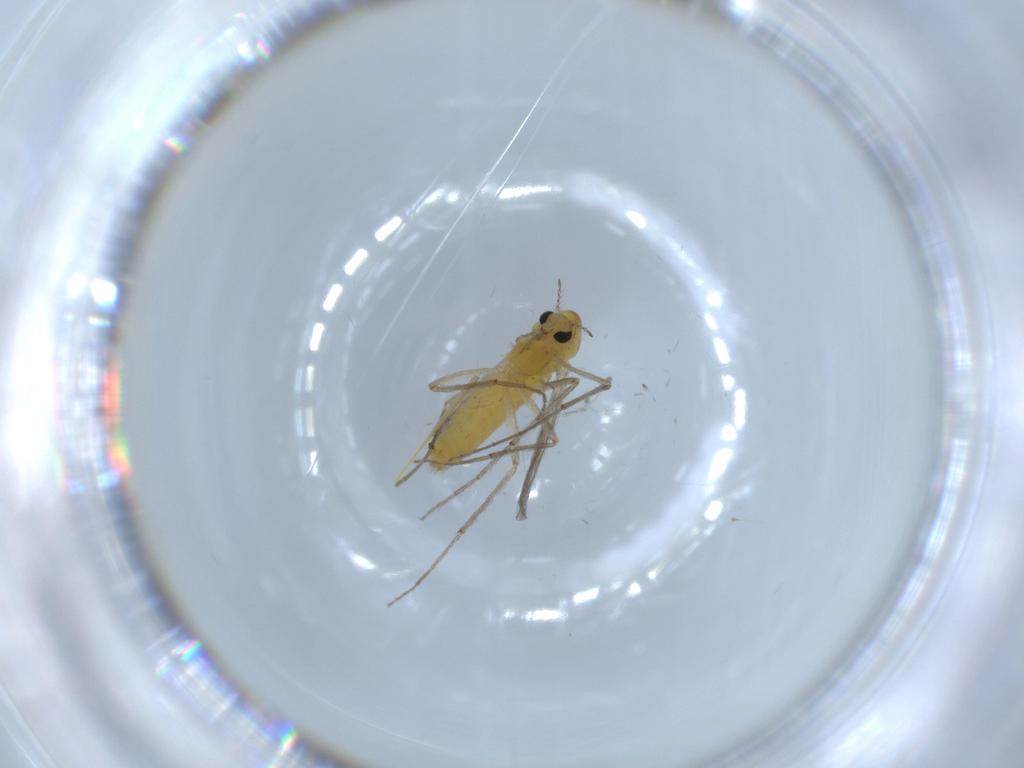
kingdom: Animalia
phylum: Arthropoda
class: Insecta
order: Diptera
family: Chironomidae
